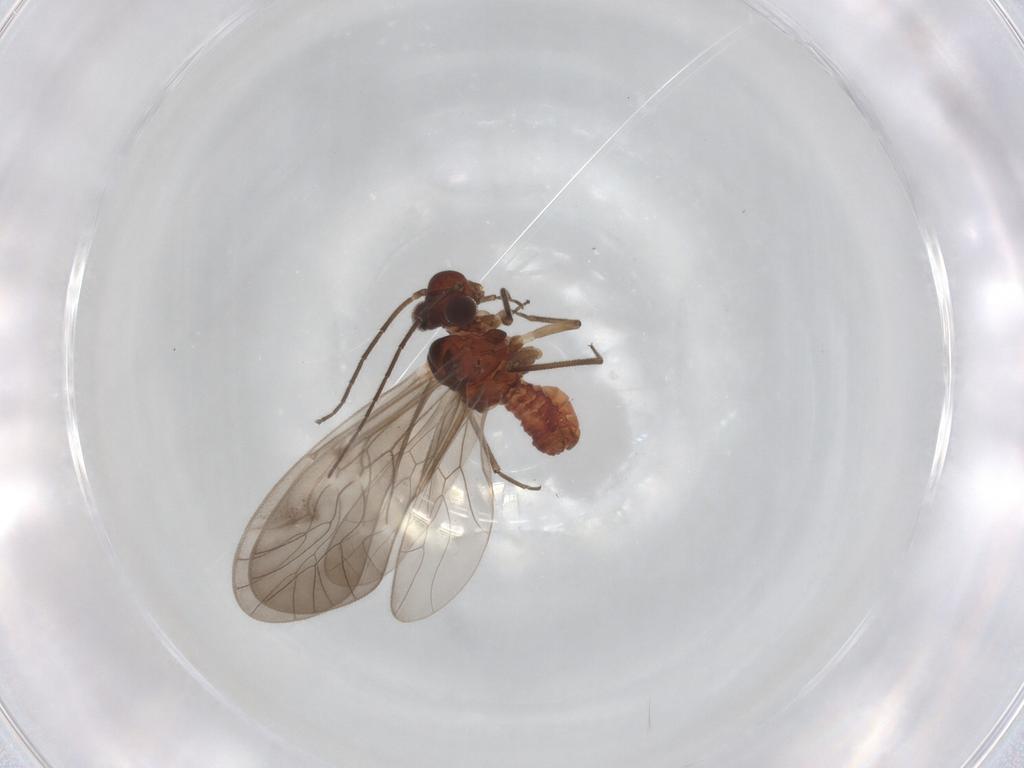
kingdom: Animalia
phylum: Arthropoda
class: Insecta
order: Psocodea
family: Caeciliusidae
